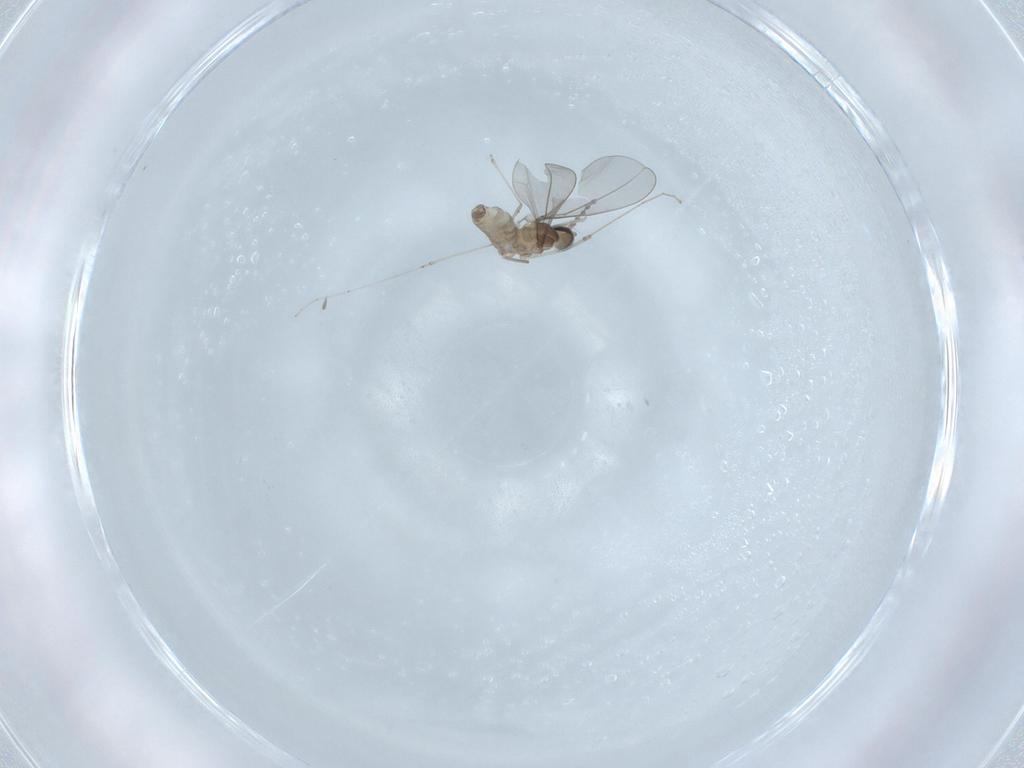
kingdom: Animalia
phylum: Arthropoda
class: Insecta
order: Diptera
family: Cecidomyiidae
